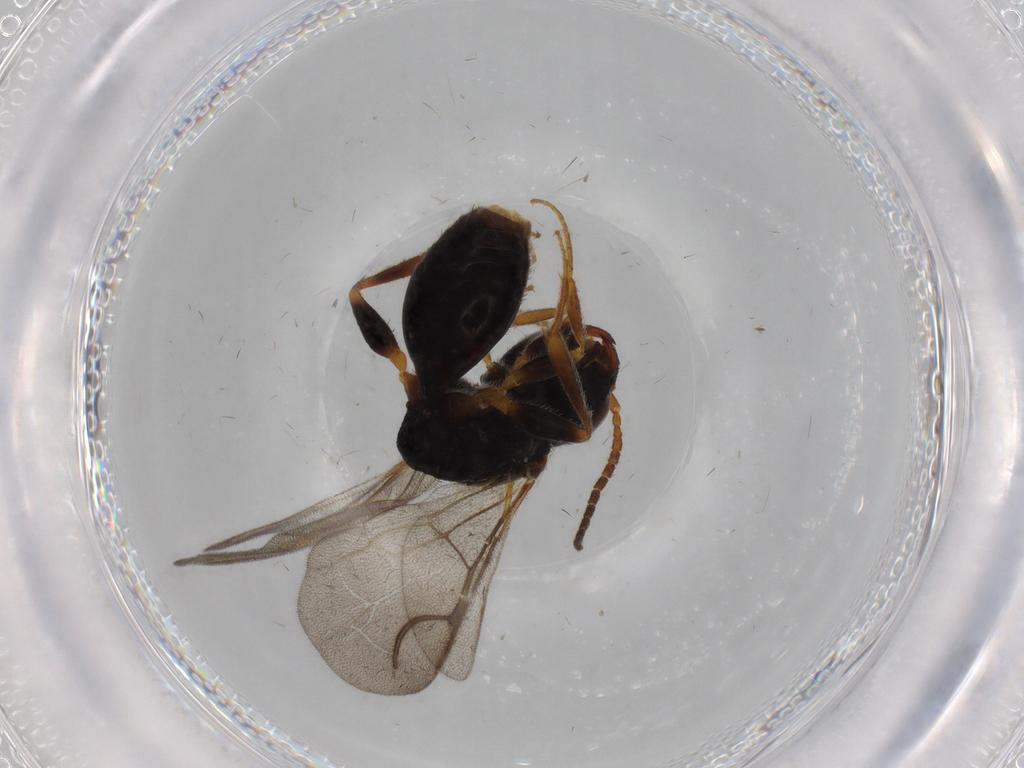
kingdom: Animalia
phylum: Arthropoda
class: Insecta
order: Hymenoptera
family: Bethylidae
